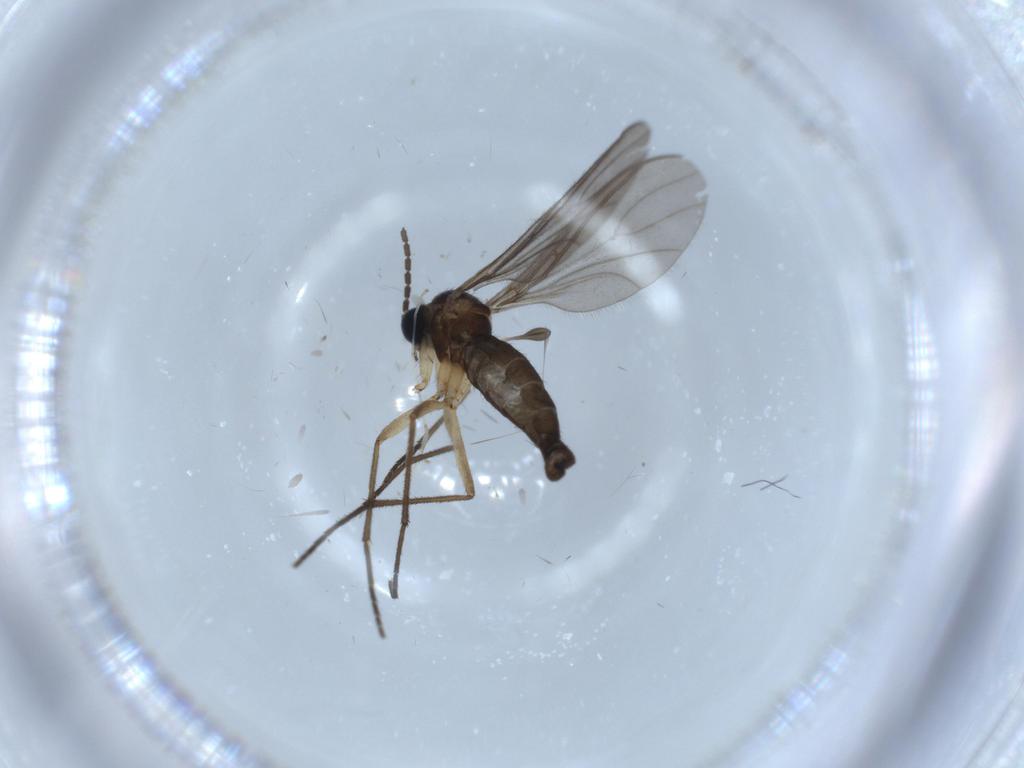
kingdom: Animalia
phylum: Arthropoda
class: Insecta
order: Diptera
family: Sciaridae
